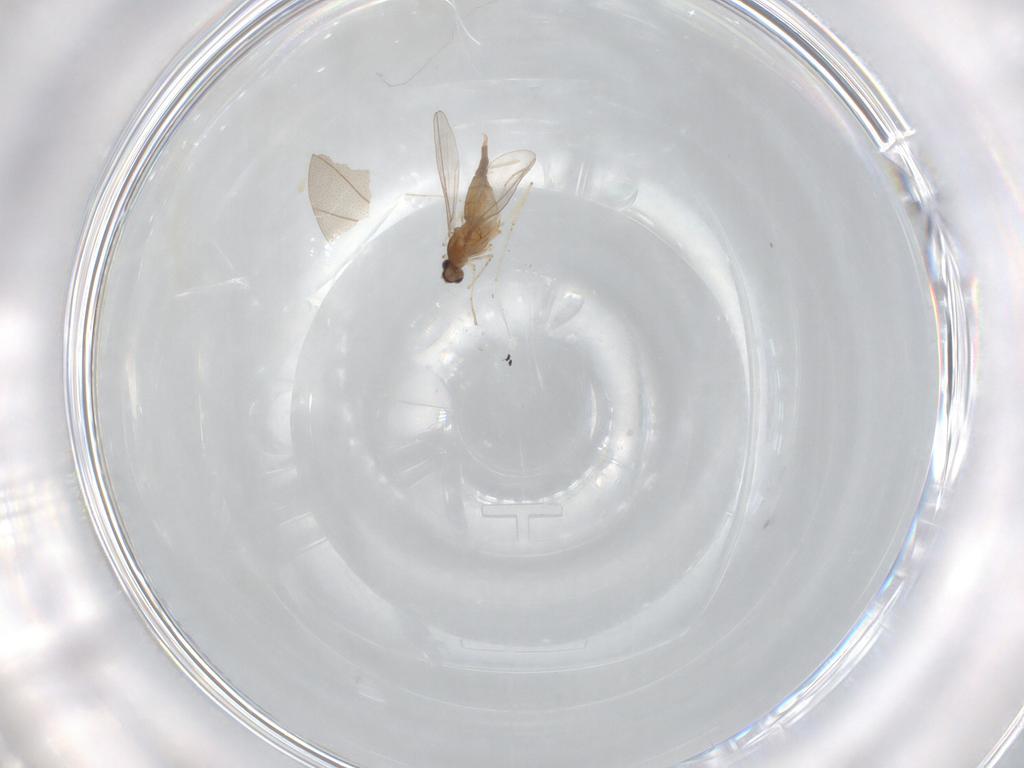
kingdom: Animalia
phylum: Arthropoda
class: Insecta
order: Diptera
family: Cecidomyiidae
